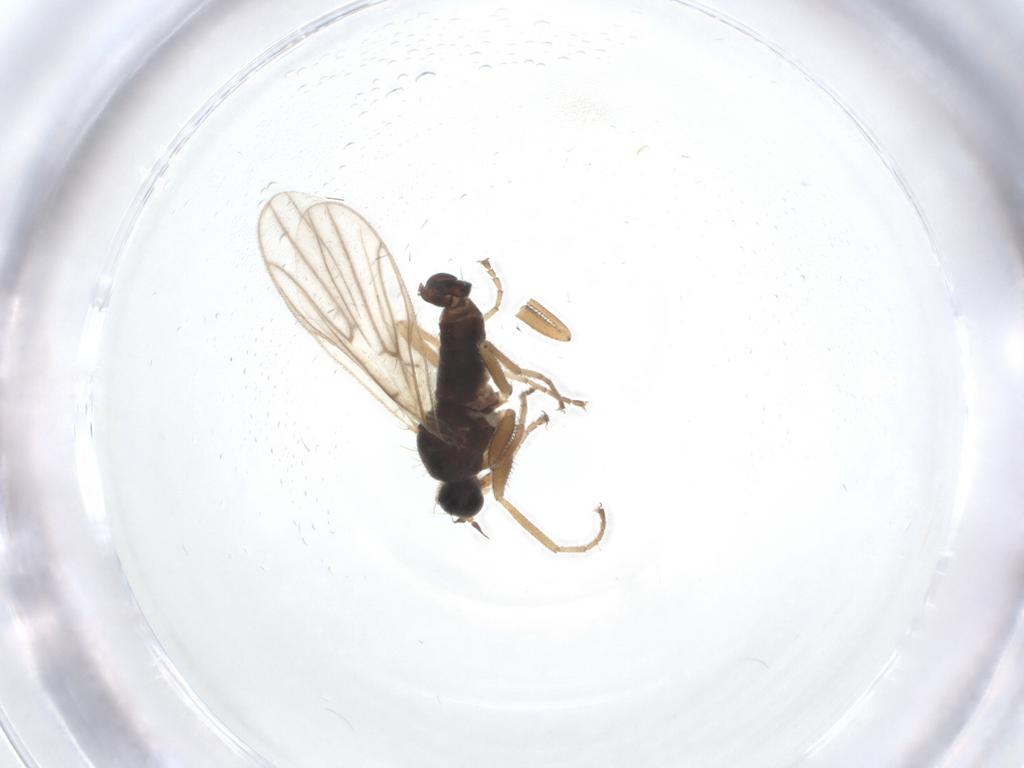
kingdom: Animalia
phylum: Arthropoda
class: Insecta
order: Diptera
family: Hybotidae
